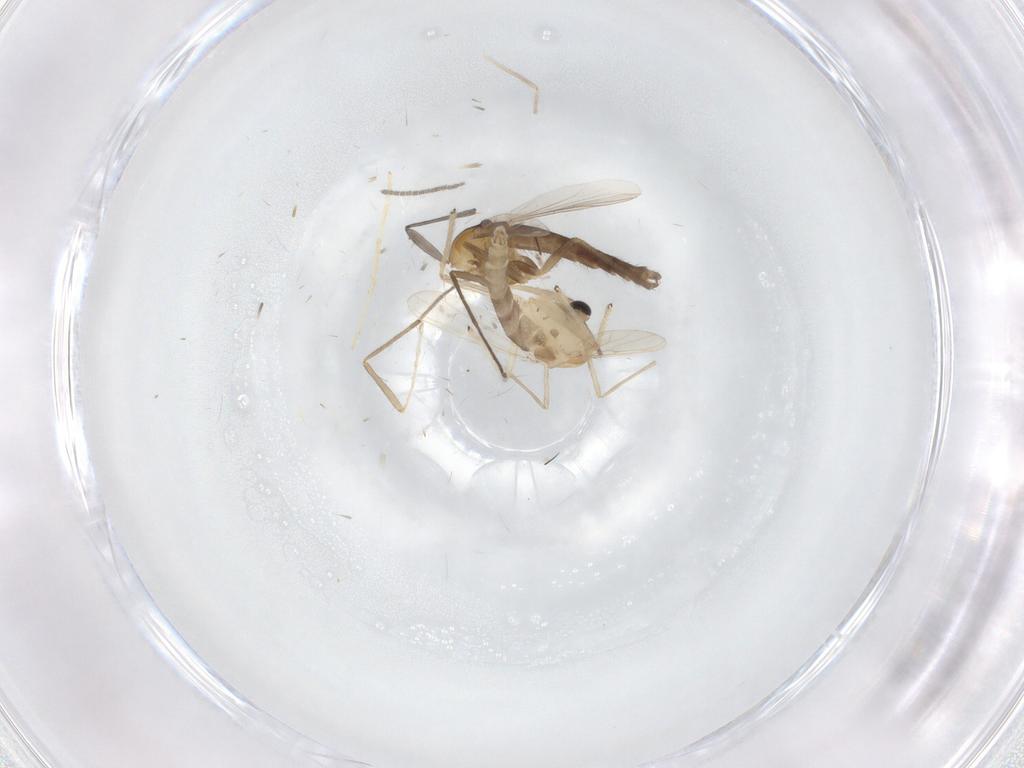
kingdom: Animalia
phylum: Arthropoda
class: Insecta
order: Diptera
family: Chironomidae
